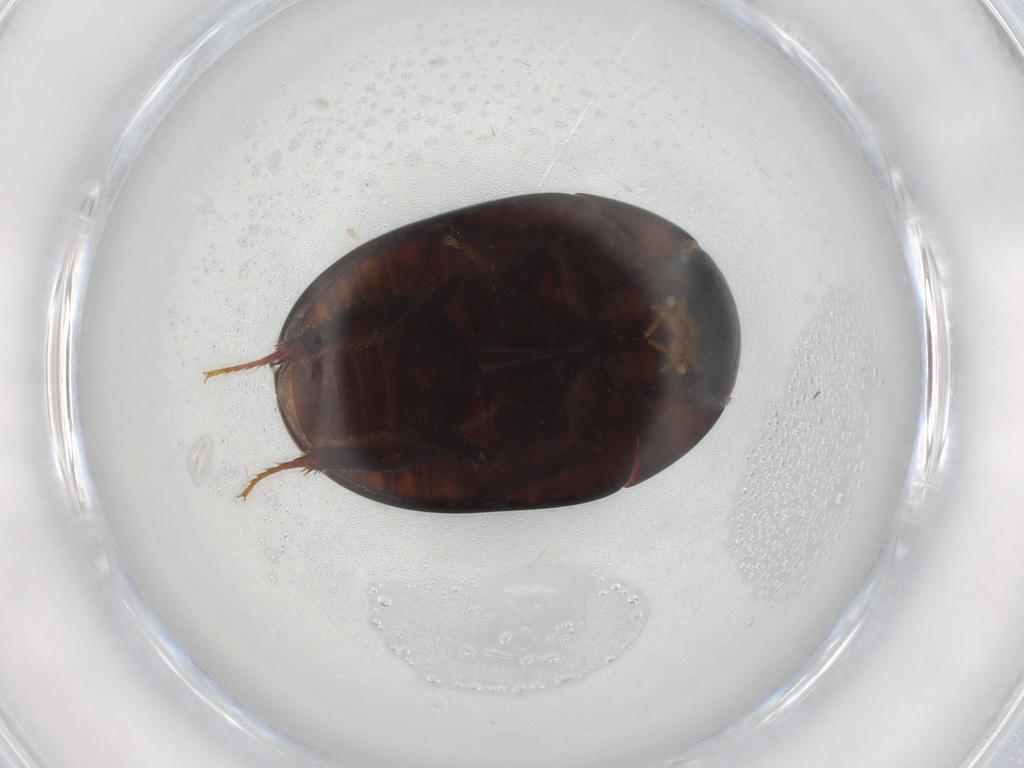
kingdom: Animalia
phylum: Arthropoda
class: Insecta
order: Coleoptera
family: Hydrophilidae
